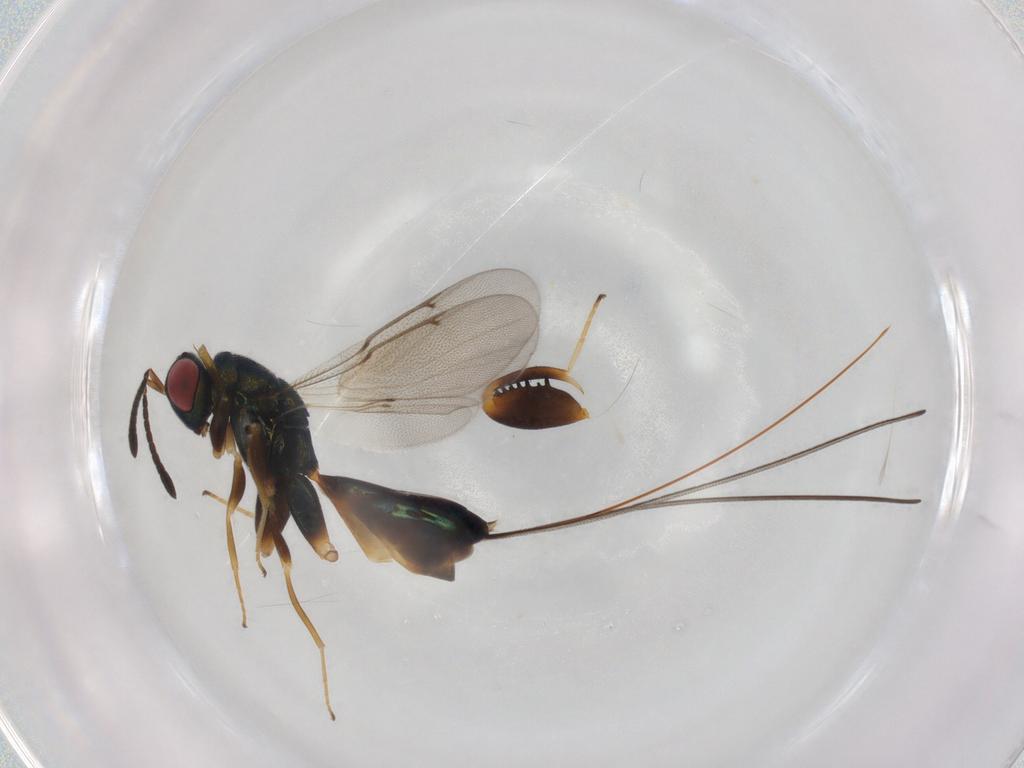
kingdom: Animalia
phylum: Arthropoda
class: Insecta
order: Hymenoptera
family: Torymidae
